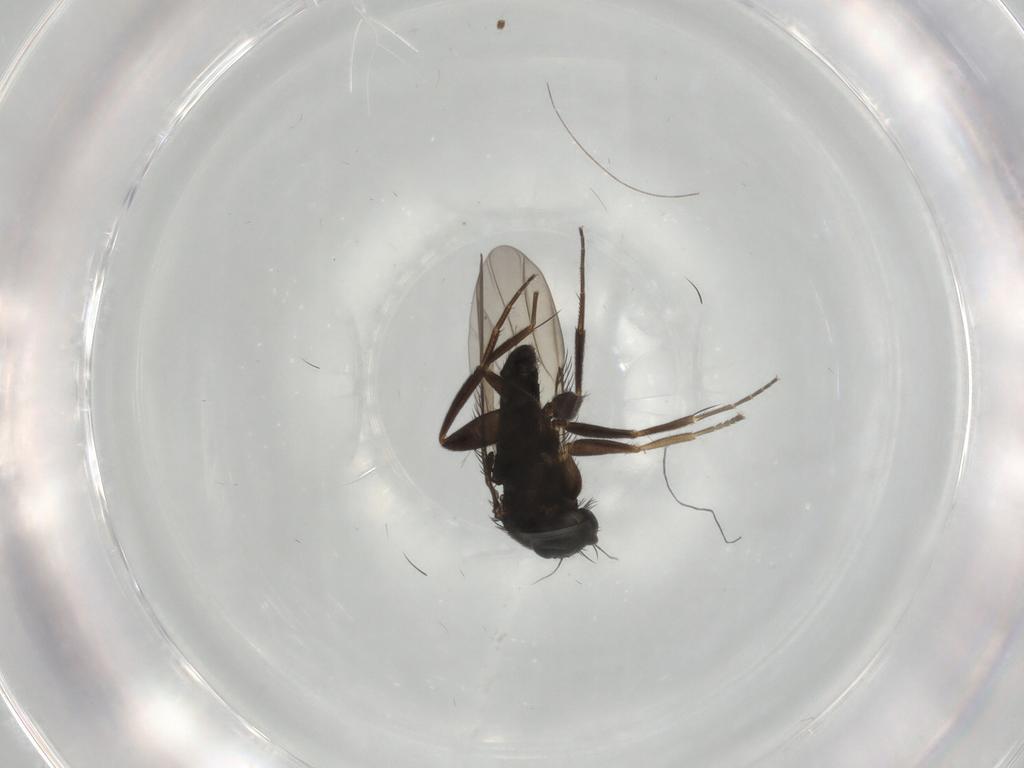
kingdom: Animalia
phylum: Arthropoda
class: Insecta
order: Diptera
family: Phoridae
